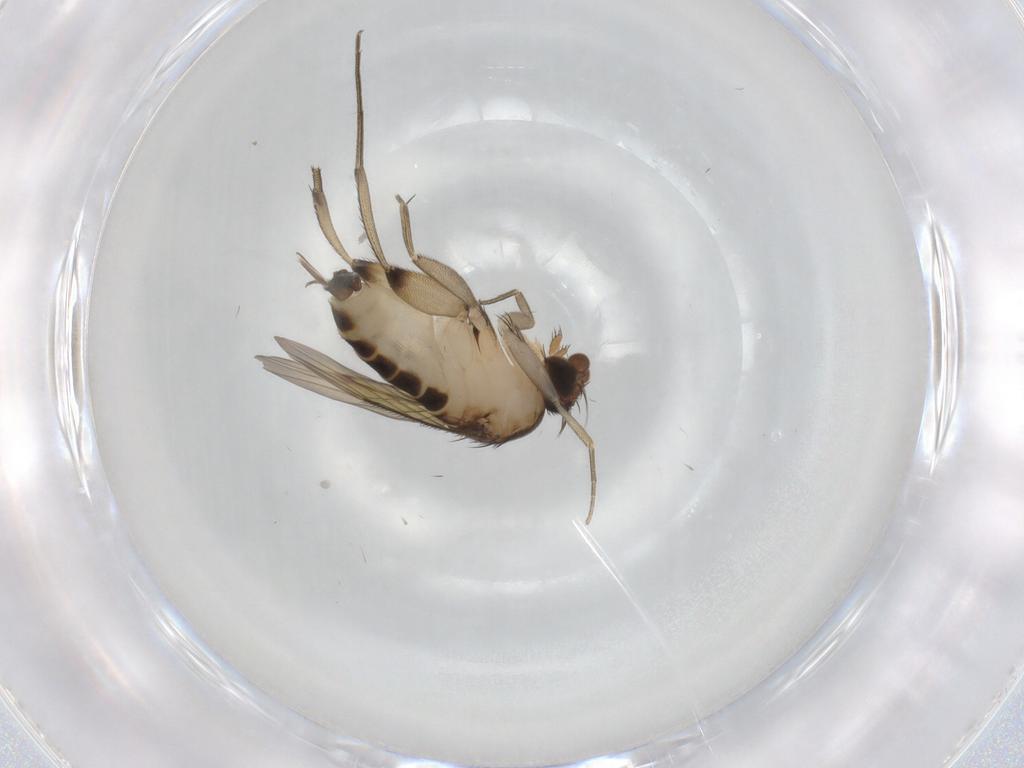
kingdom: Animalia
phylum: Arthropoda
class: Insecta
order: Diptera
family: Phoridae
